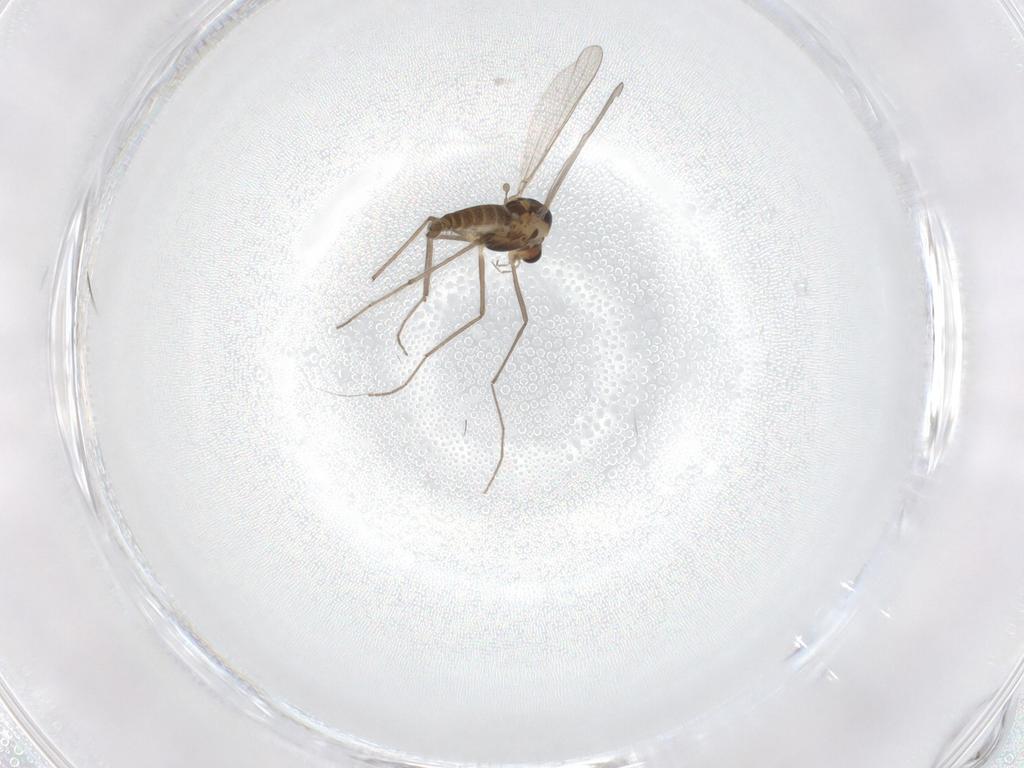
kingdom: Animalia
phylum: Arthropoda
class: Insecta
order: Diptera
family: Chironomidae
